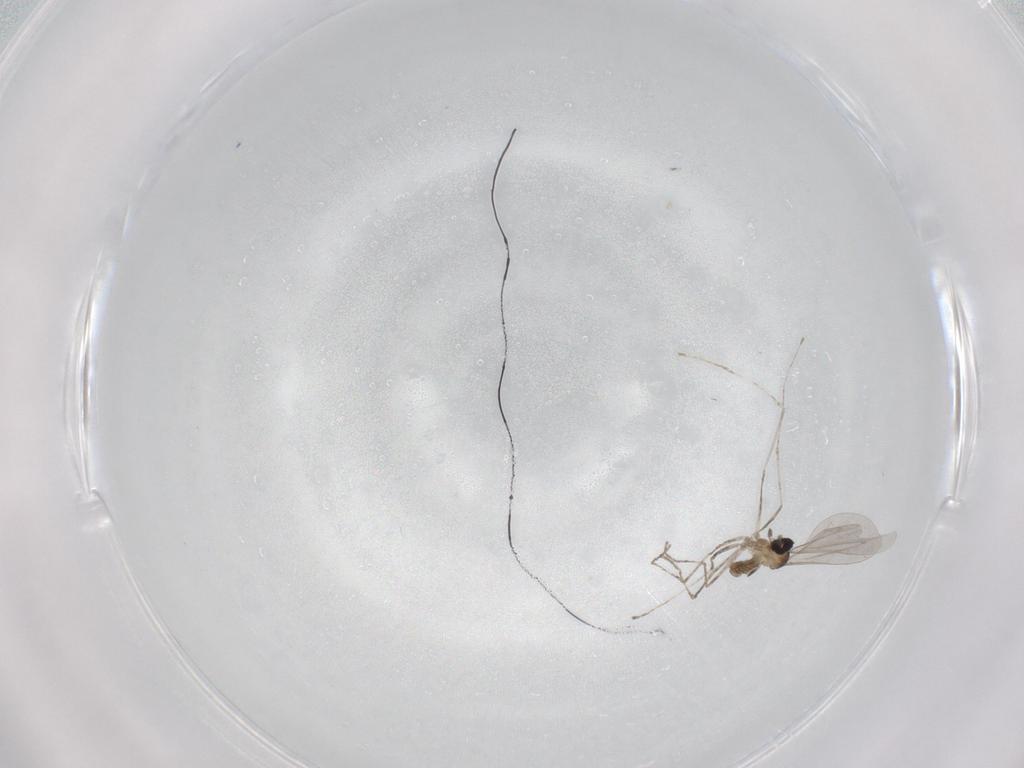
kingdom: Animalia
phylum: Arthropoda
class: Insecta
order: Diptera
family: Cecidomyiidae
